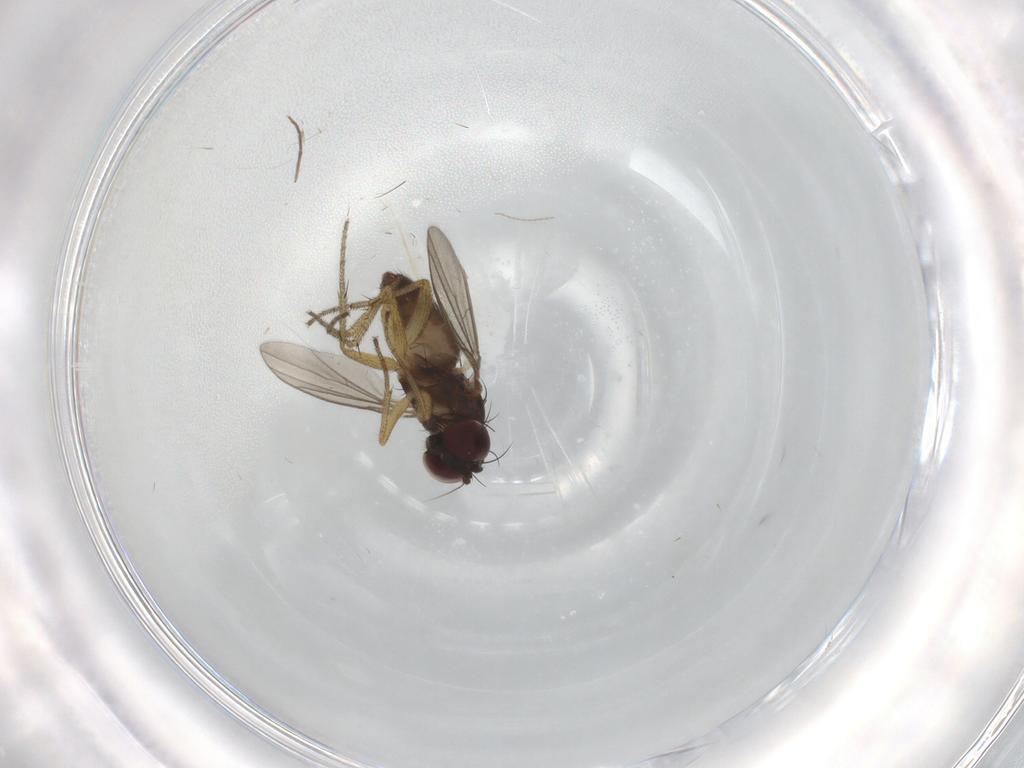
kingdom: Animalia
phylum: Arthropoda
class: Insecta
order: Diptera
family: Dolichopodidae
